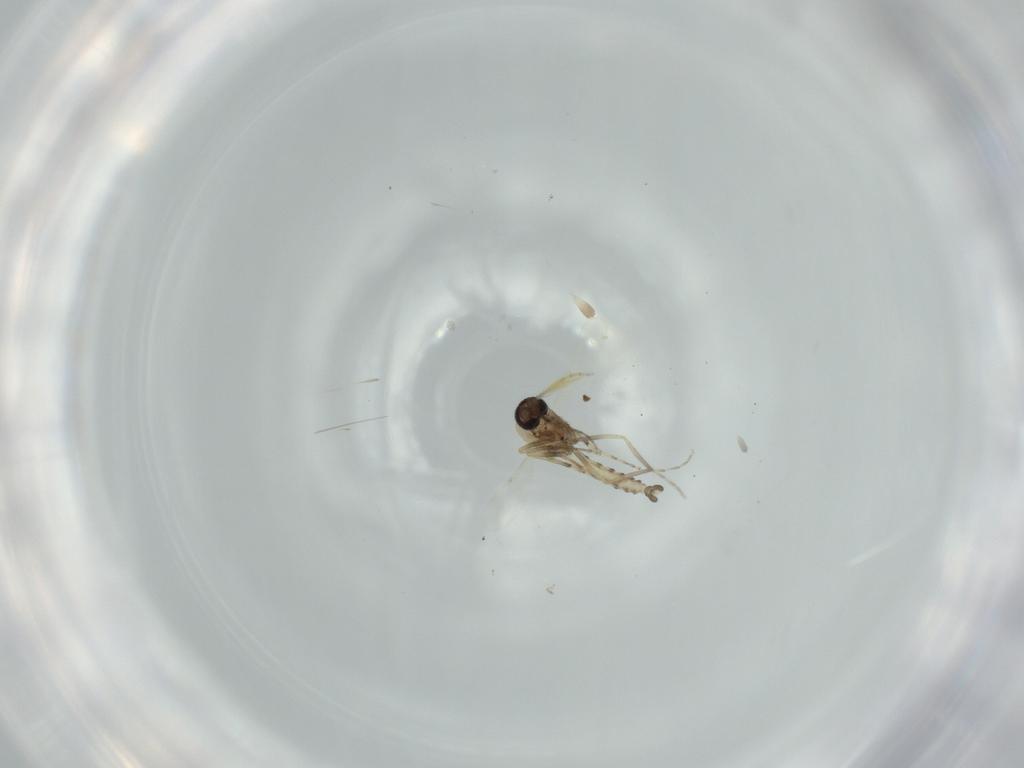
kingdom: Animalia
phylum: Arthropoda
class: Insecta
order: Diptera
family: Sciaridae
